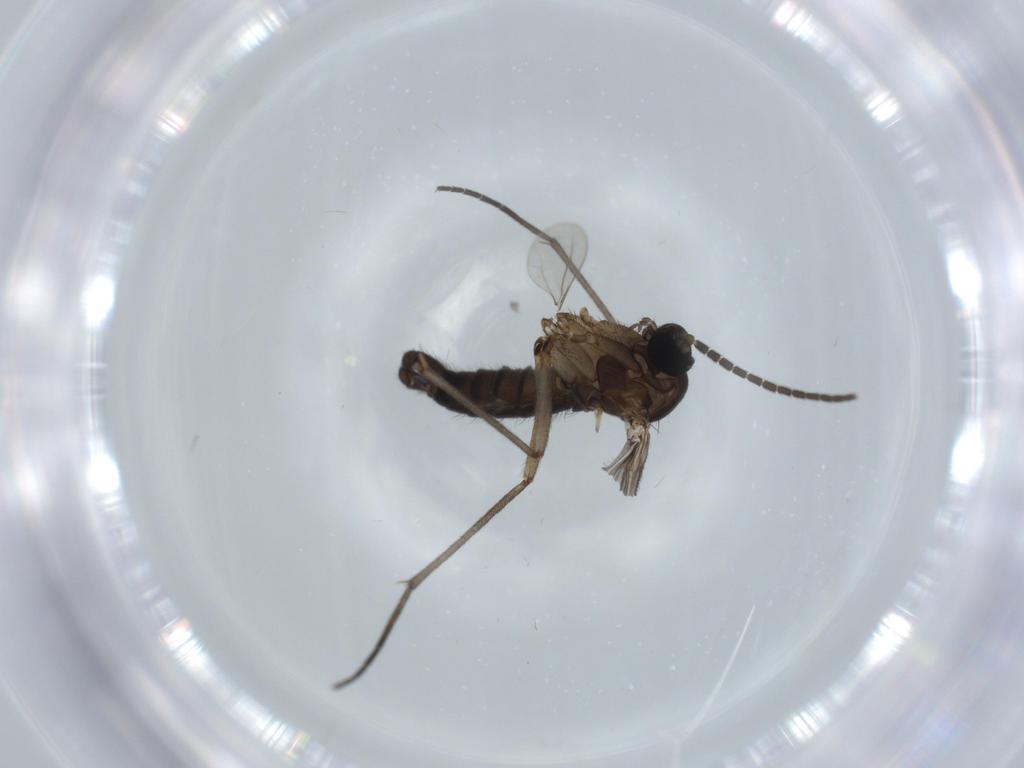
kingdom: Animalia
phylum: Arthropoda
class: Insecta
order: Diptera
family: Sciaridae
